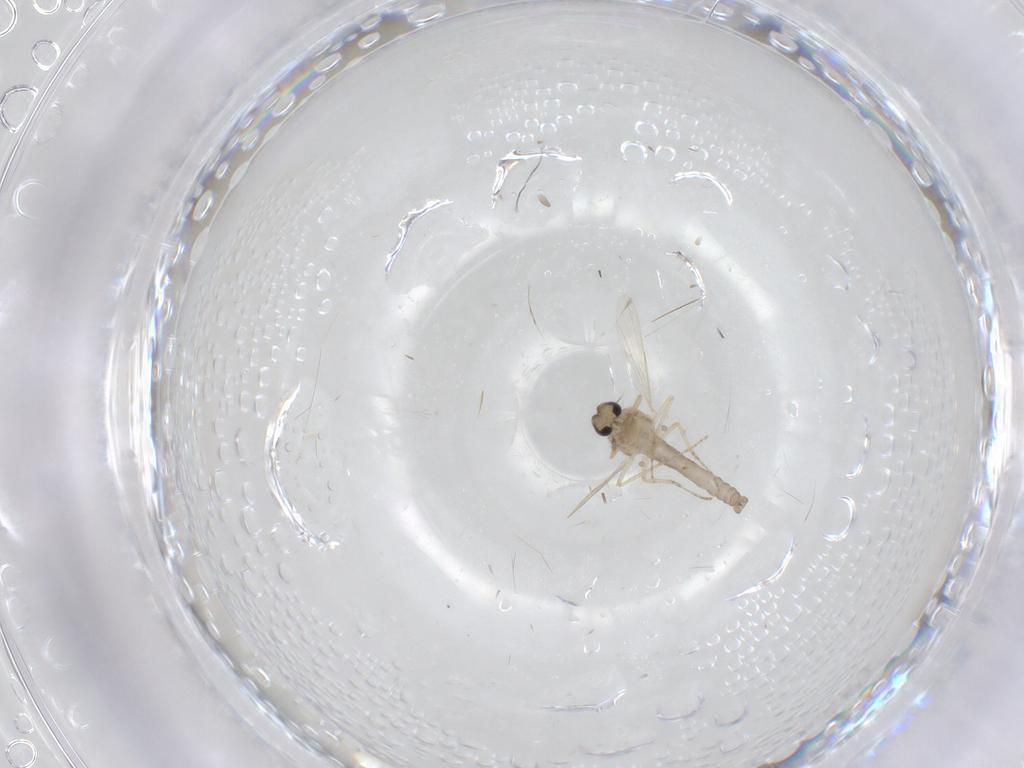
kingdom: Animalia
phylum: Arthropoda
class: Insecta
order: Diptera
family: Ceratopogonidae
